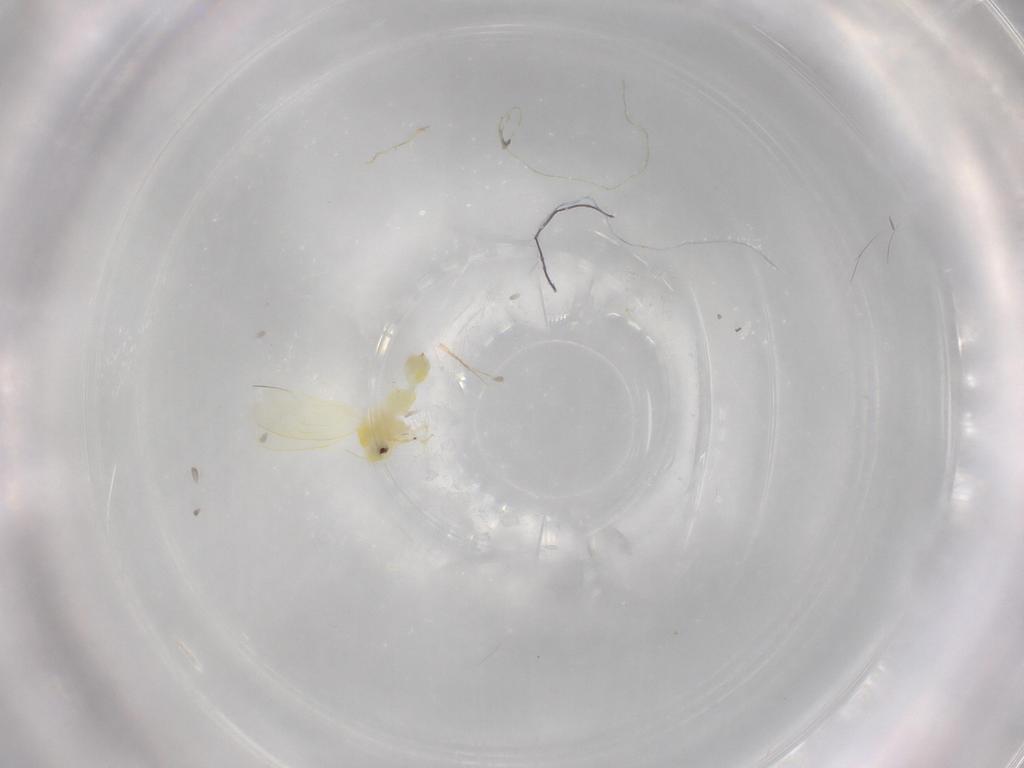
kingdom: Animalia
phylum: Arthropoda
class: Insecta
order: Hemiptera
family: Aleyrodidae
